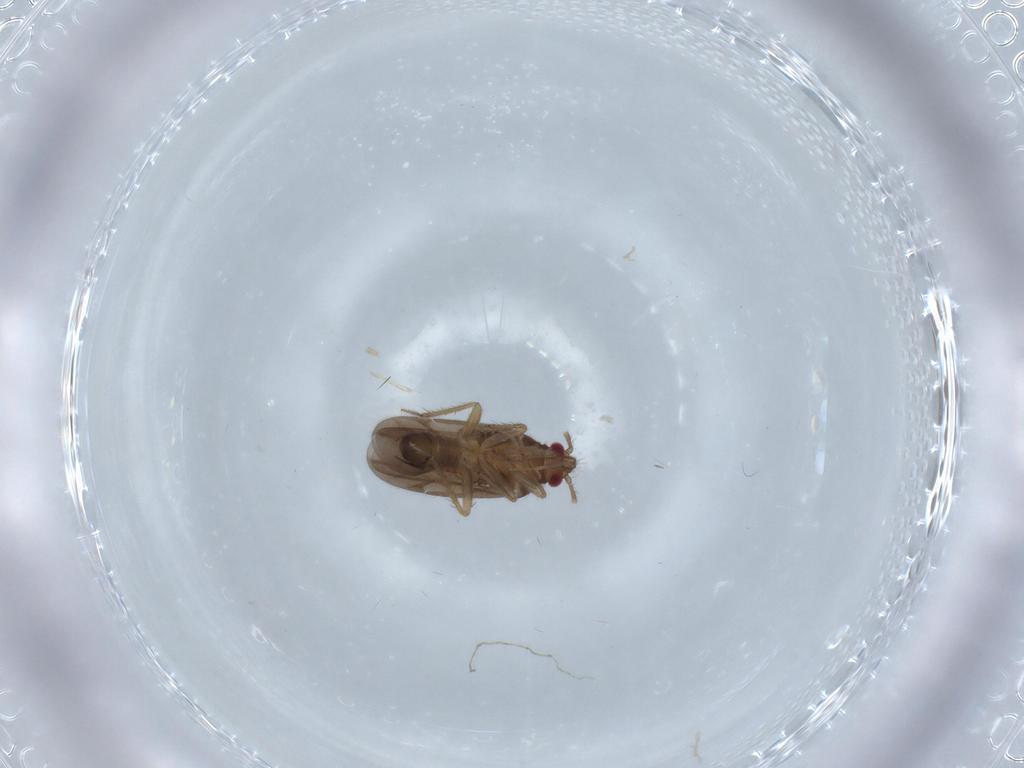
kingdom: Animalia
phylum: Arthropoda
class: Insecta
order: Hemiptera
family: Ceratocombidae
